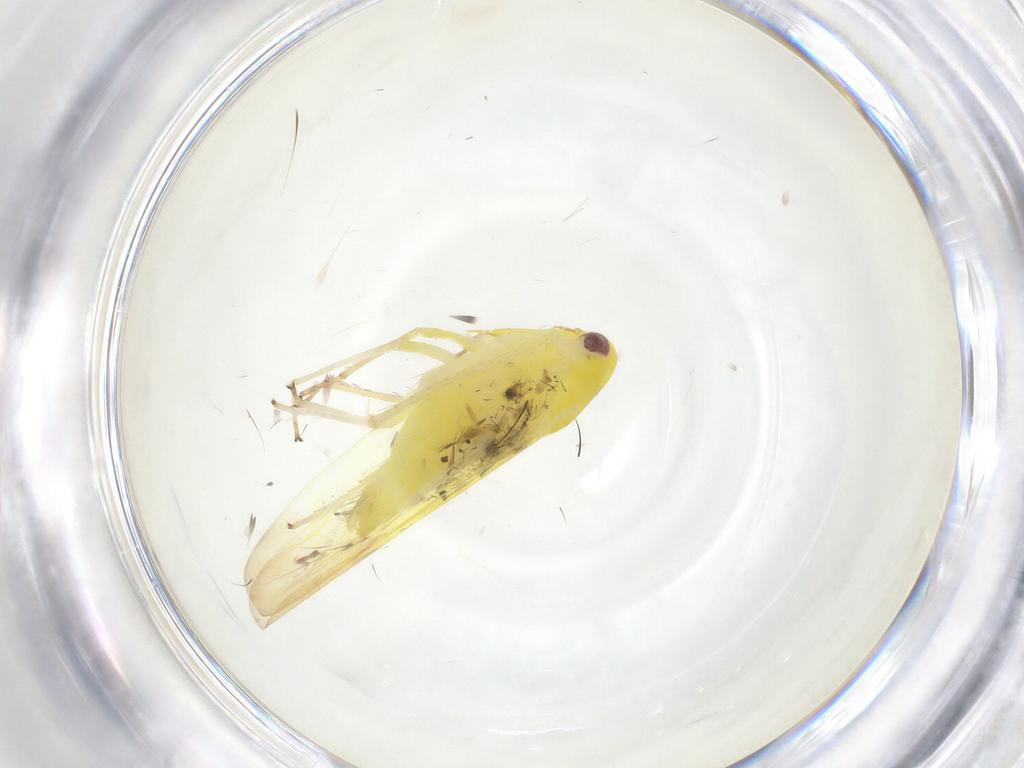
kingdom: Animalia
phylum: Arthropoda
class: Insecta
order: Hemiptera
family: Cicadellidae
